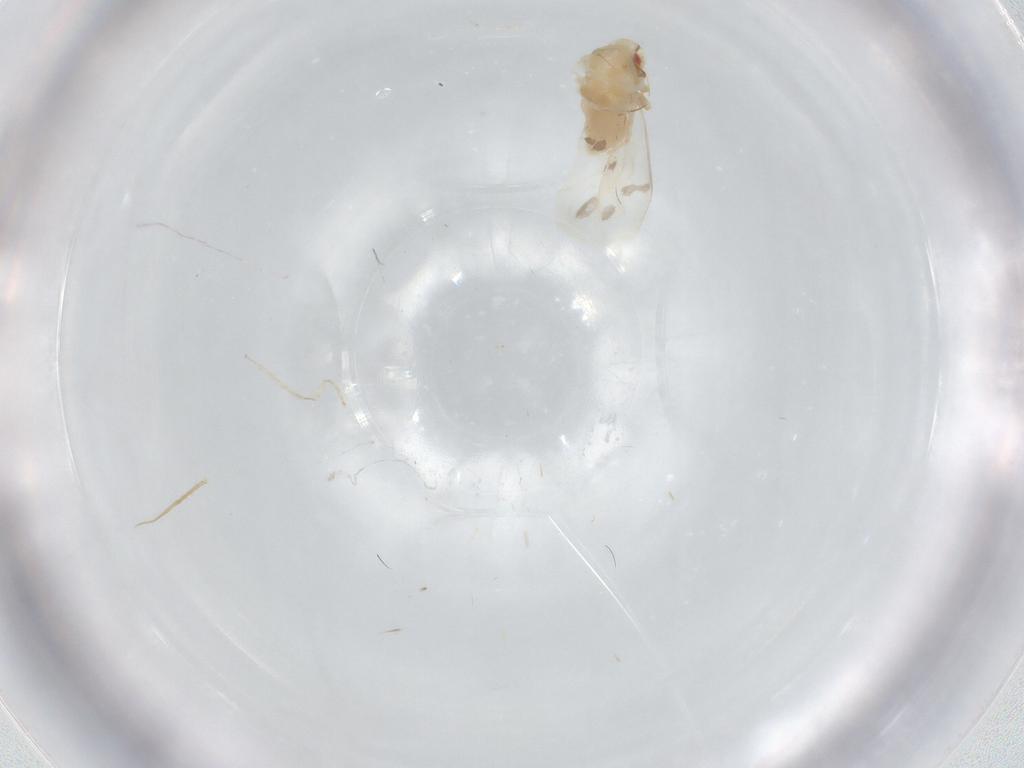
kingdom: Animalia
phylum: Arthropoda
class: Insecta
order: Hemiptera
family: Aleyrodidae
